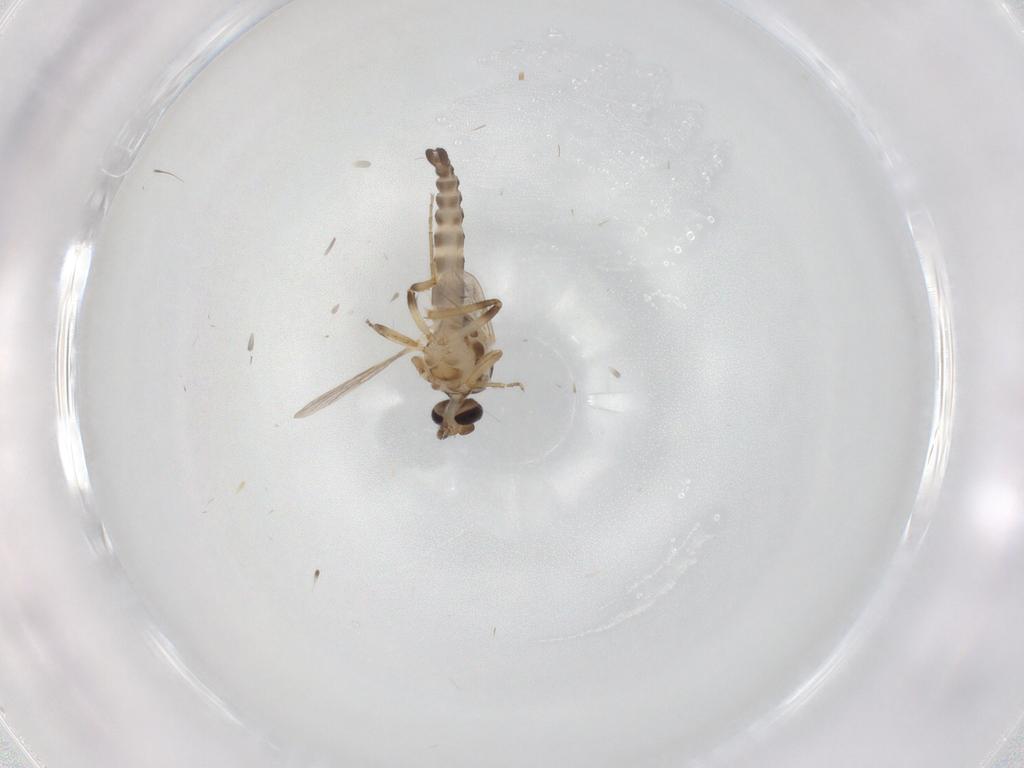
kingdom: Animalia
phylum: Arthropoda
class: Insecta
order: Diptera
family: Ceratopogonidae
